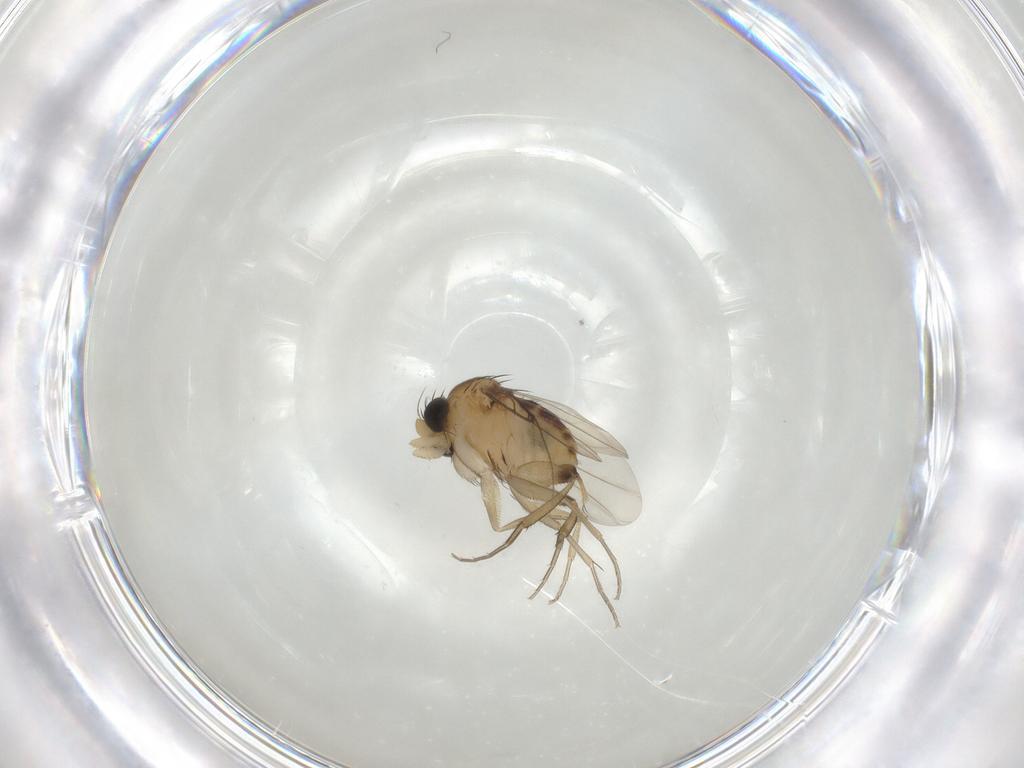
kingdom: Animalia
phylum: Arthropoda
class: Insecta
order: Diptera
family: Phoridae
